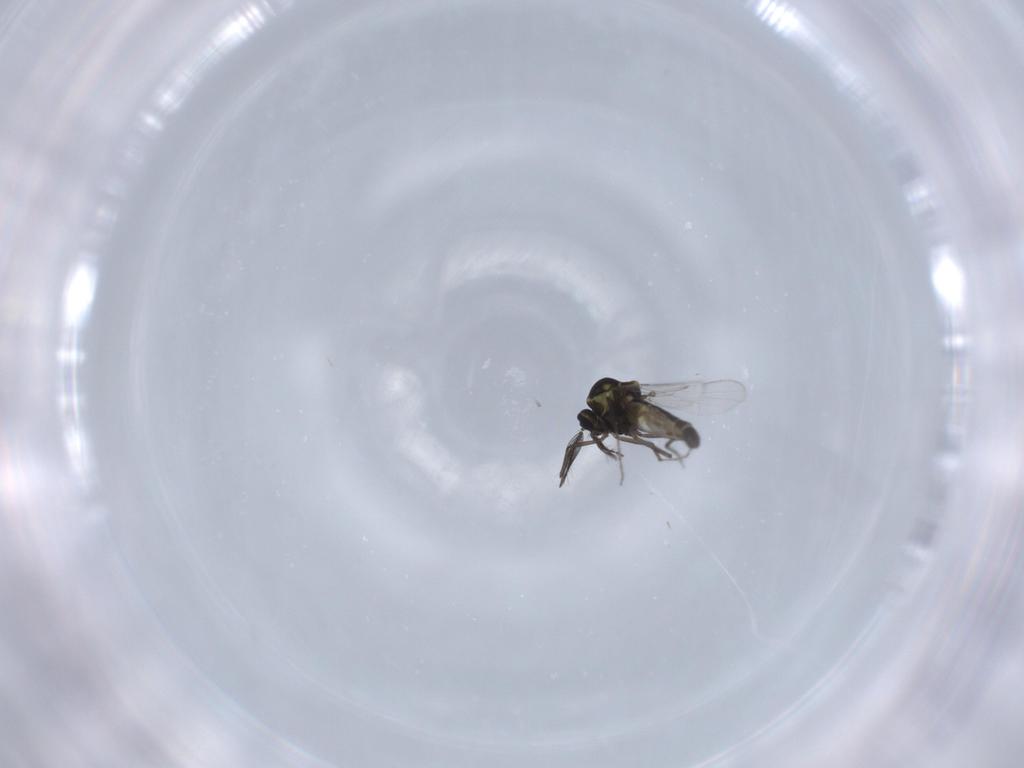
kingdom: Animalia
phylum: Arthropoda
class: Insecta
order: Diptera
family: Ceratopogonidae
